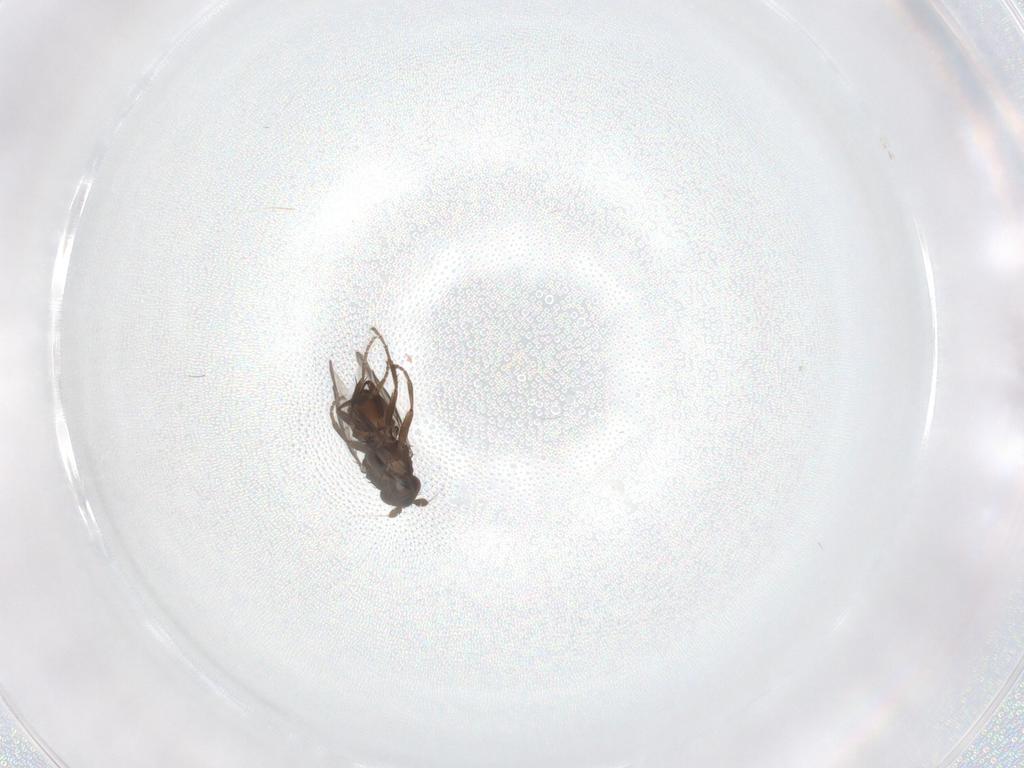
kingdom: Animalia
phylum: Arthropoda
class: Insecta
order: Diptera
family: Sphaeroceridae
